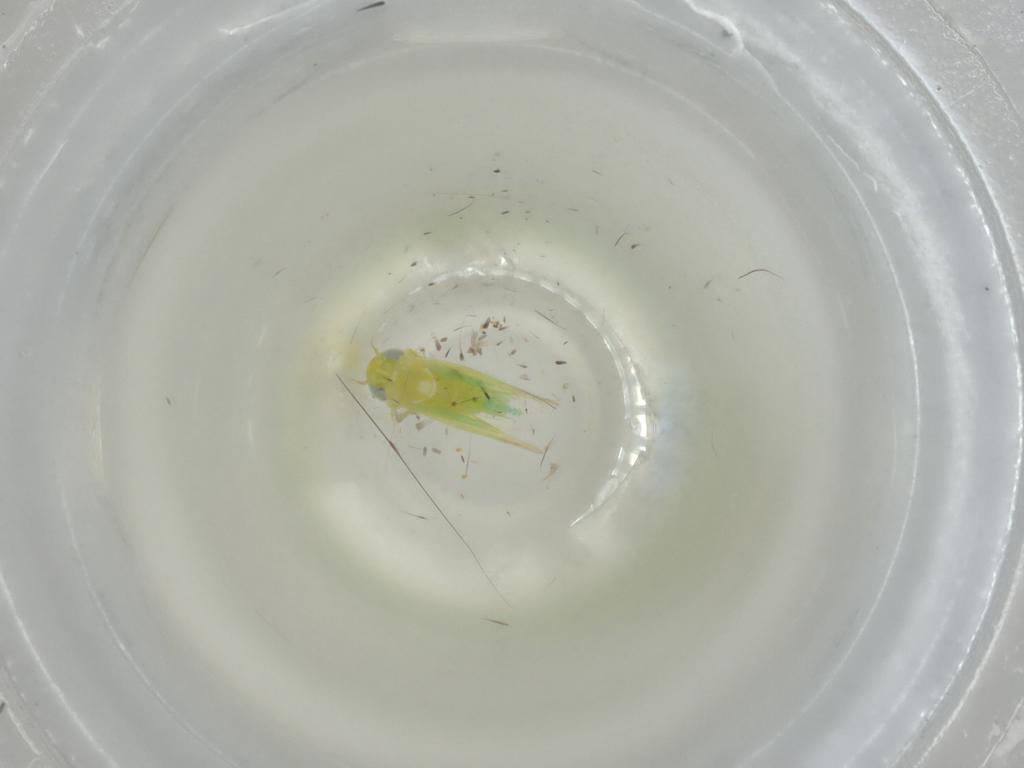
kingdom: Animalia
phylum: Arthropoda
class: Insecta
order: Hemiptera
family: Cicadellidae
